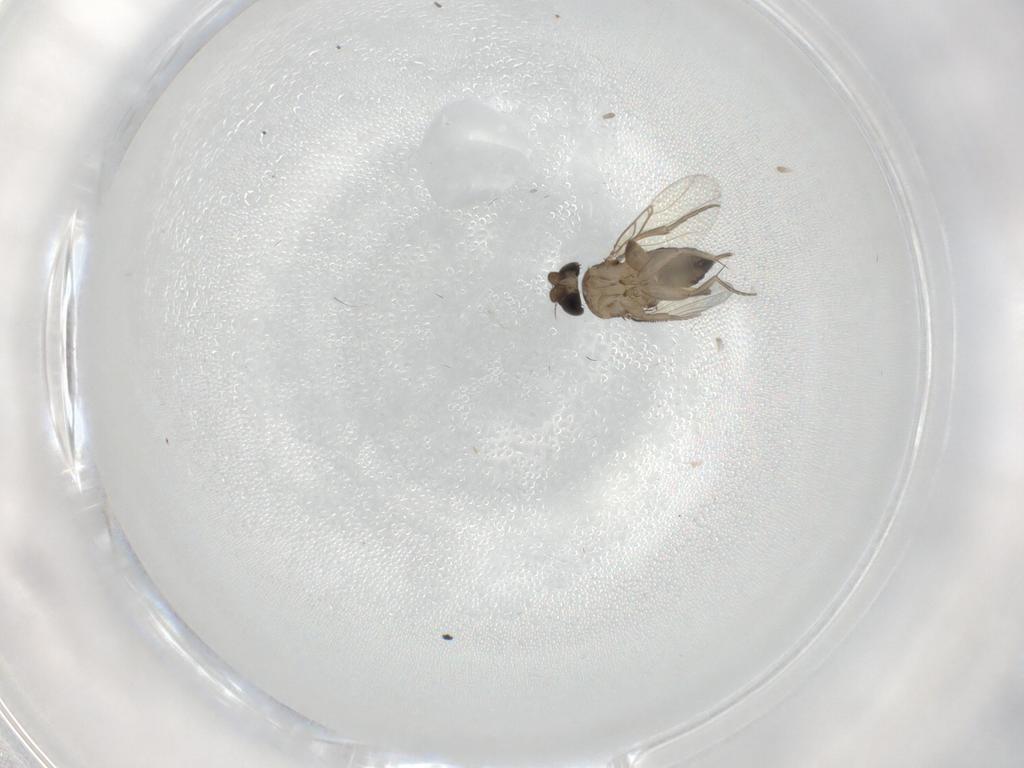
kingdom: Animalia
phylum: Arthropoda
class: Insecta
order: Diptera
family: Phoridae
